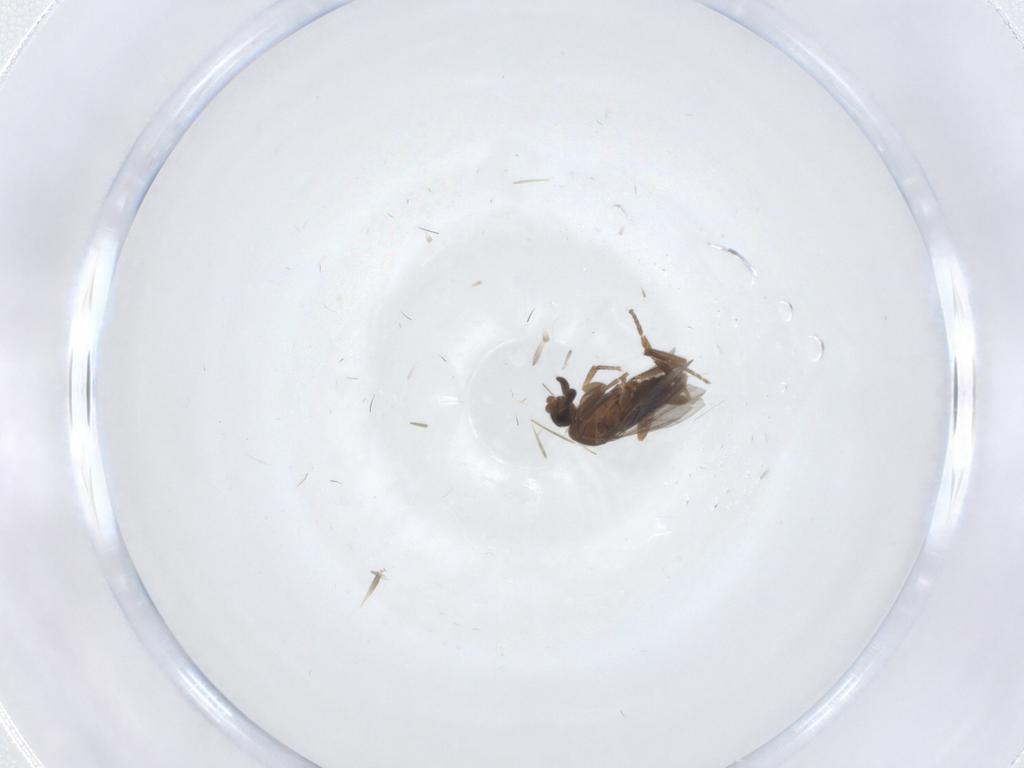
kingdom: Animalia
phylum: Arthropoda
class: Insecta
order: Diptera
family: Phoridae
